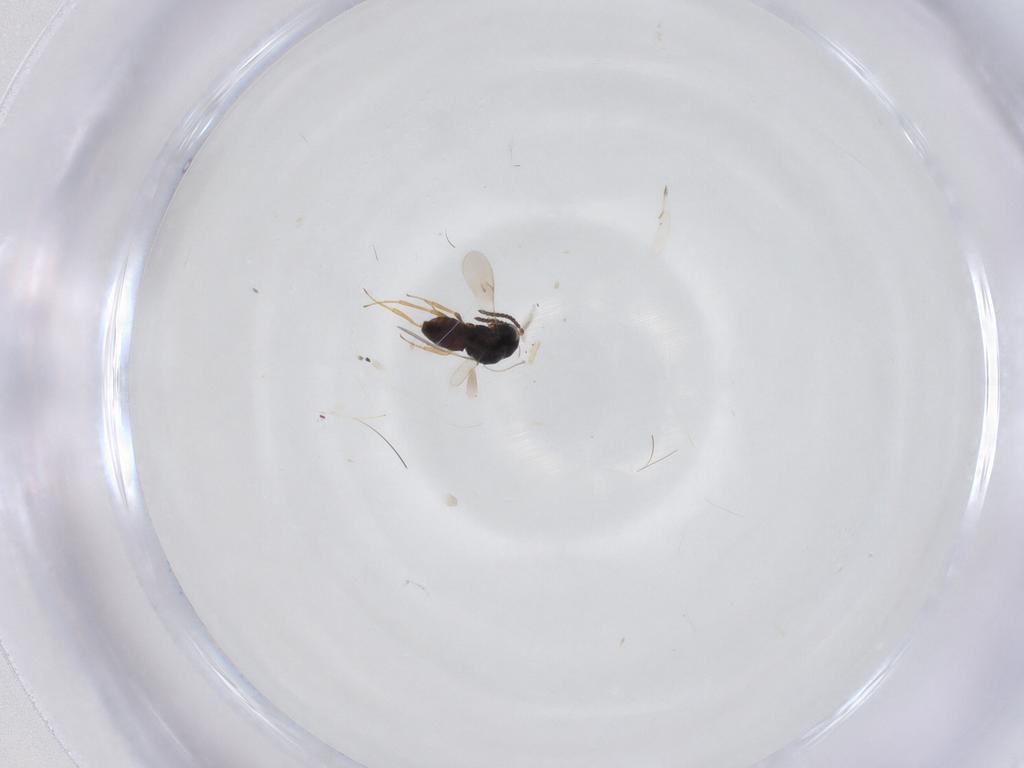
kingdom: Animalia
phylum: Arthropoda
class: Insecta
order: Hymenoptera
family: Scelionidae
